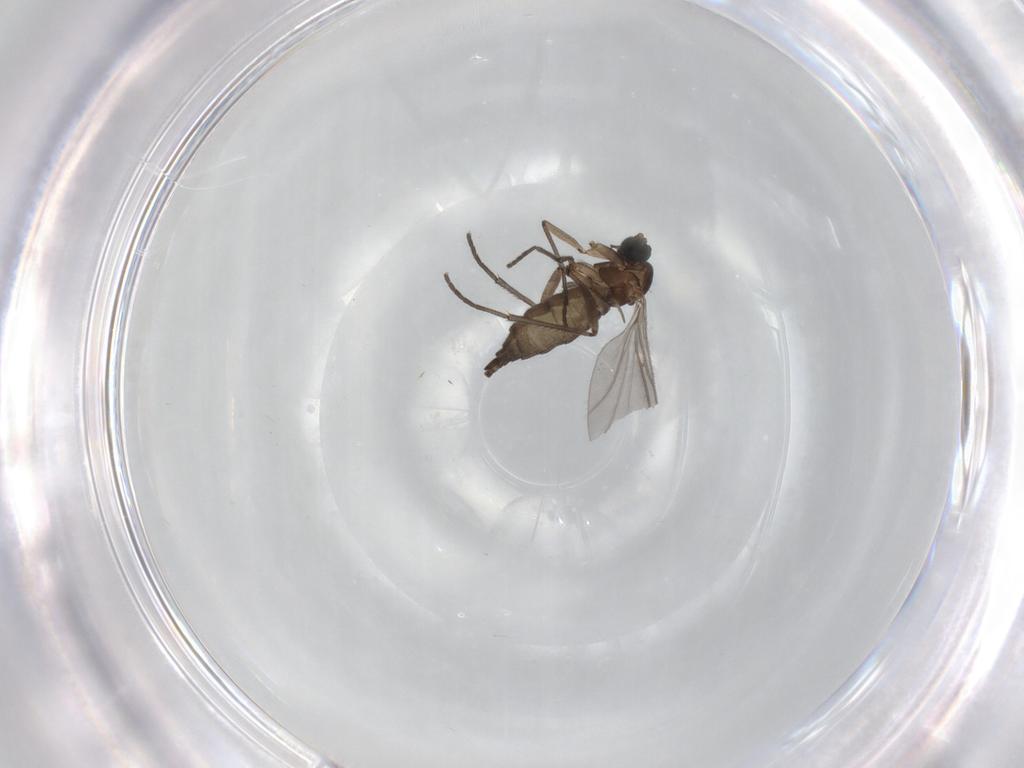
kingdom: Animalia
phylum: Arthropoda
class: Insecta
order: Diptera
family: Sciaridae
